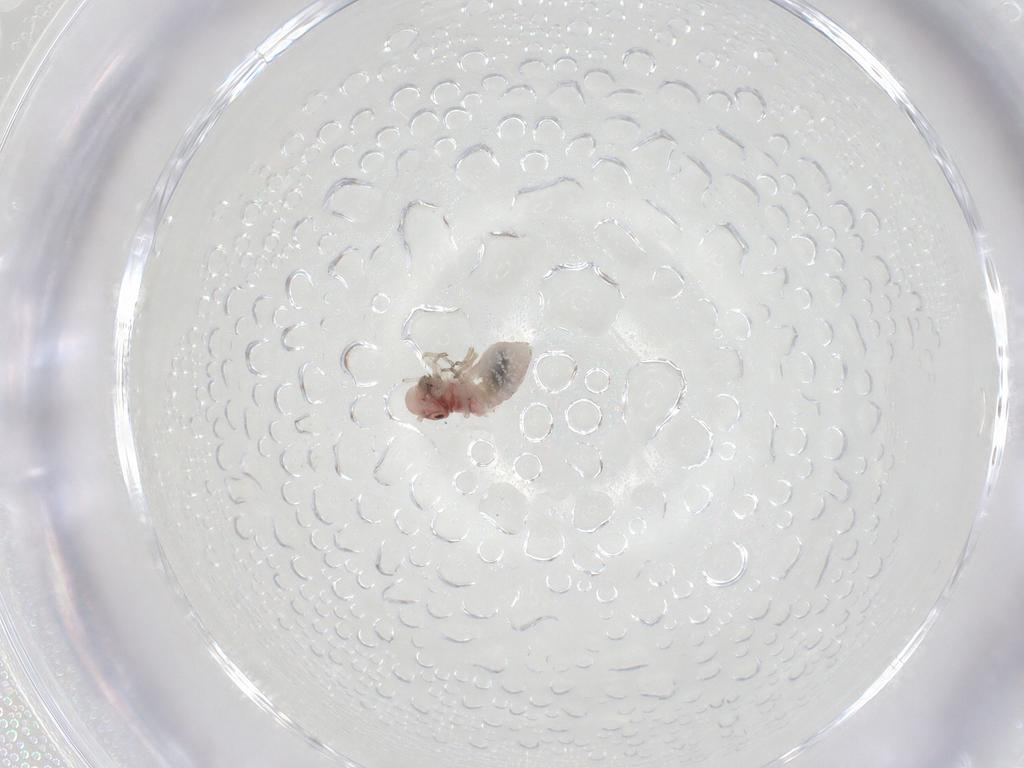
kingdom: Animalia
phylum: Arthropoda
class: Insecta
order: Psocodea
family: Caeciliusidae
